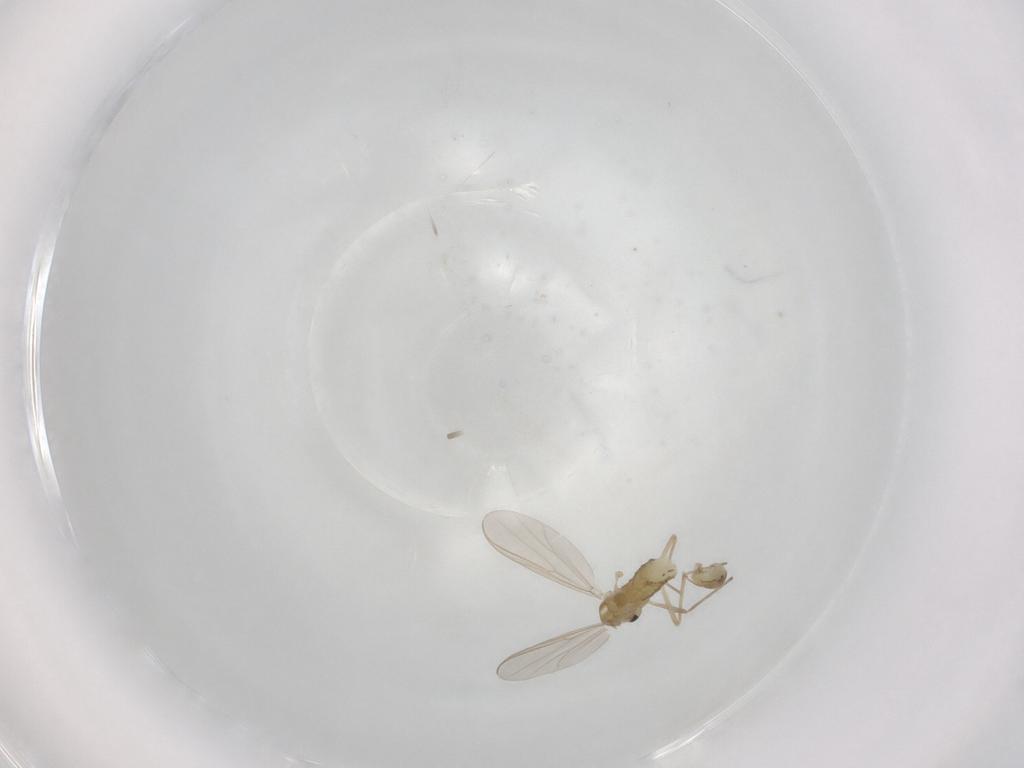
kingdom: Animalia
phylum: Arthropoda
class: Insecta
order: Diptera
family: Chironomidae
